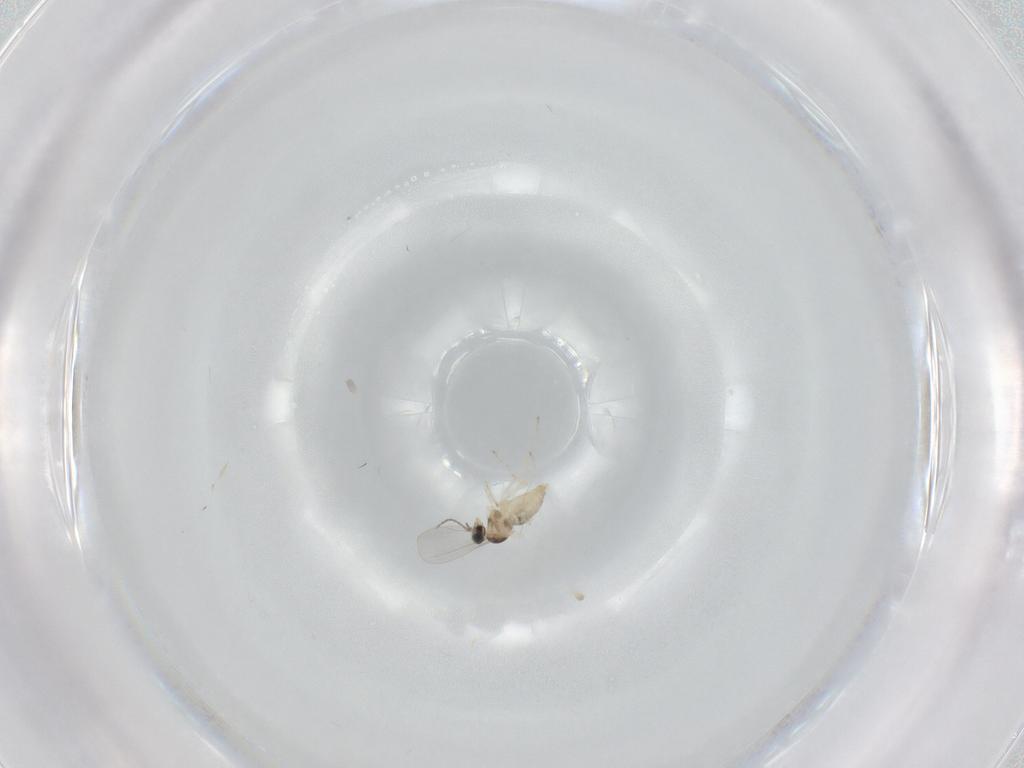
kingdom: Animalia
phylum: Arthropoda
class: Insecta
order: Diptera
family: Cecidomyiidae
